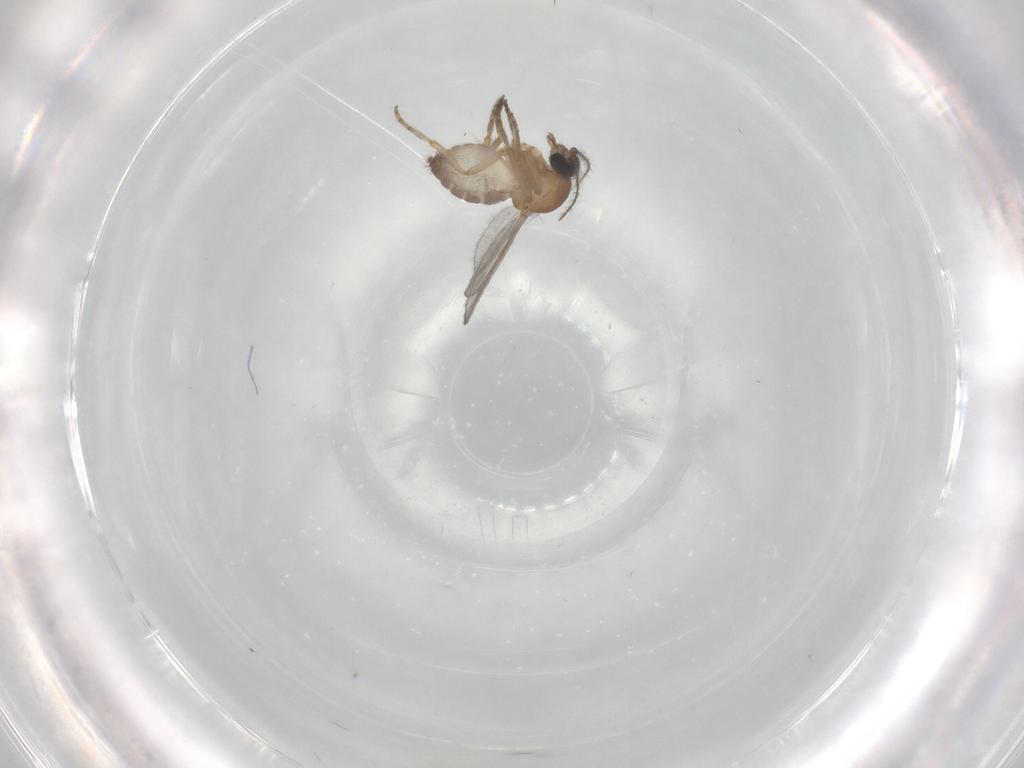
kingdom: Animalia
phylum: Arthropoda
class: Insecta
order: Diptera
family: Ceratopogonidae
